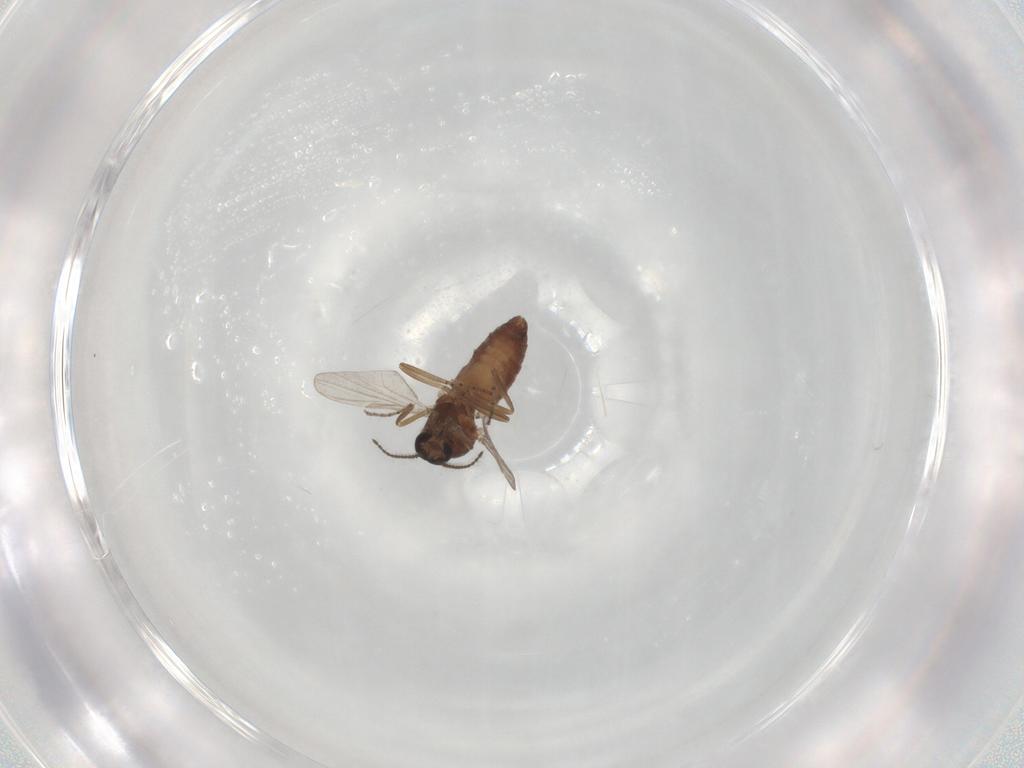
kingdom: Animalia
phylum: Arthropoda
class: Insecta
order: Diptera
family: Ceratopogonidae
